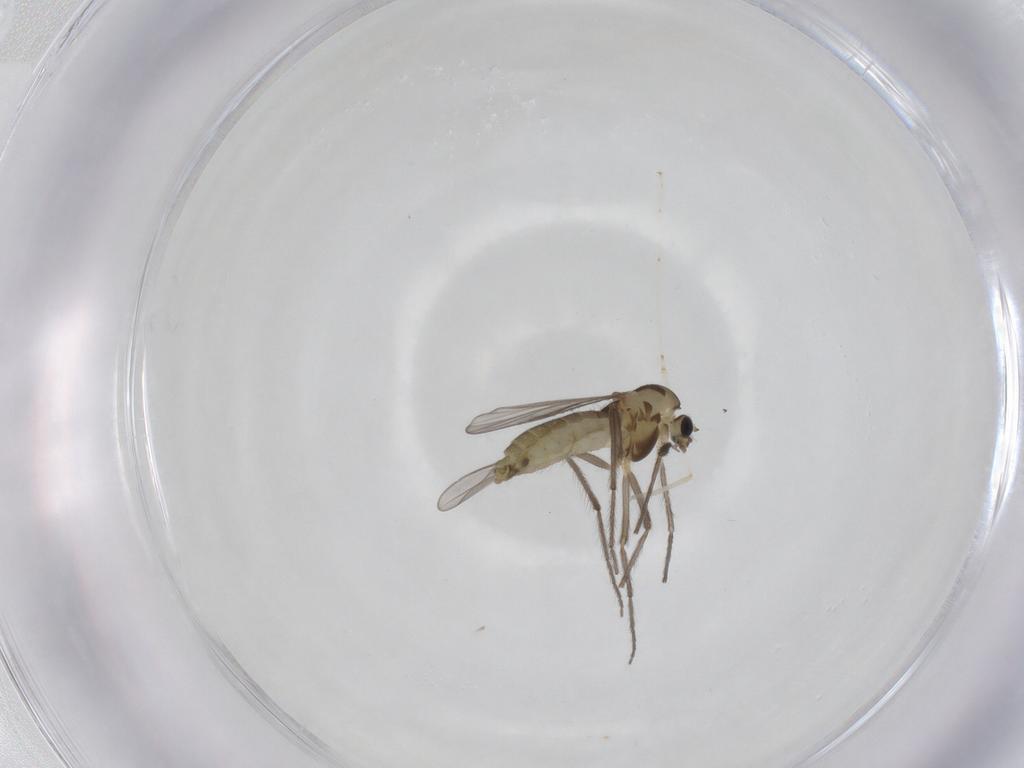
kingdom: Animalia
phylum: Arthropoda
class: Insecta
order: Diptera
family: Chironomidae
